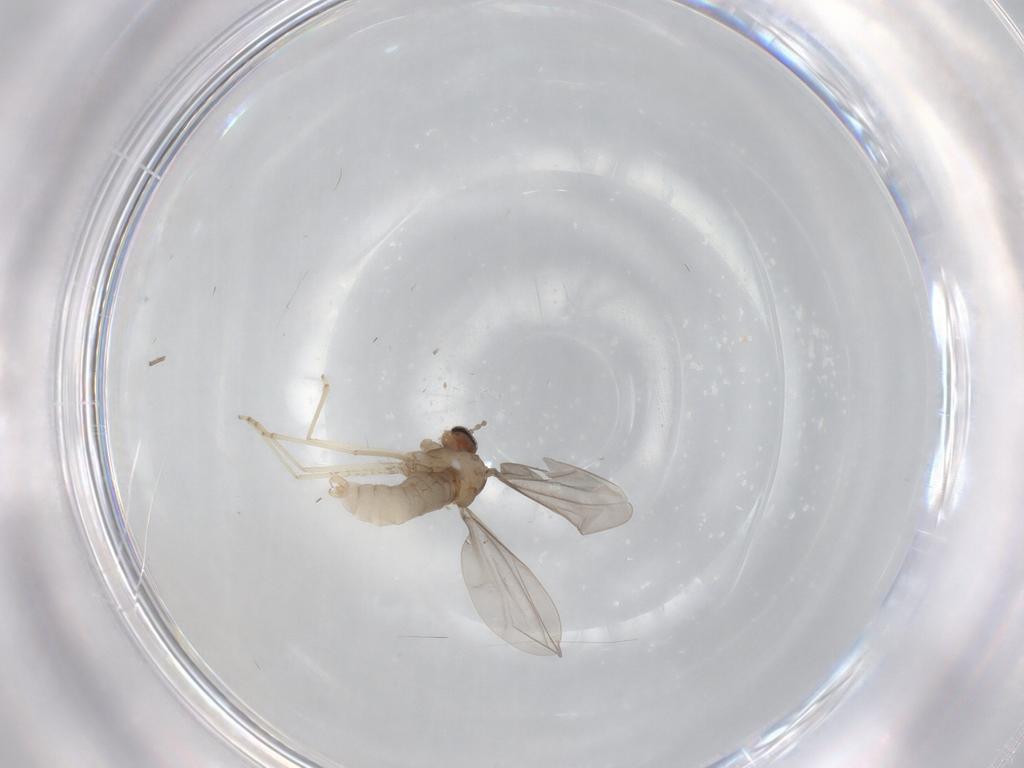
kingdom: Animalia
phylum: Arthropoda
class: Insecta
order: Diptera
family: Cecidomyiidae
